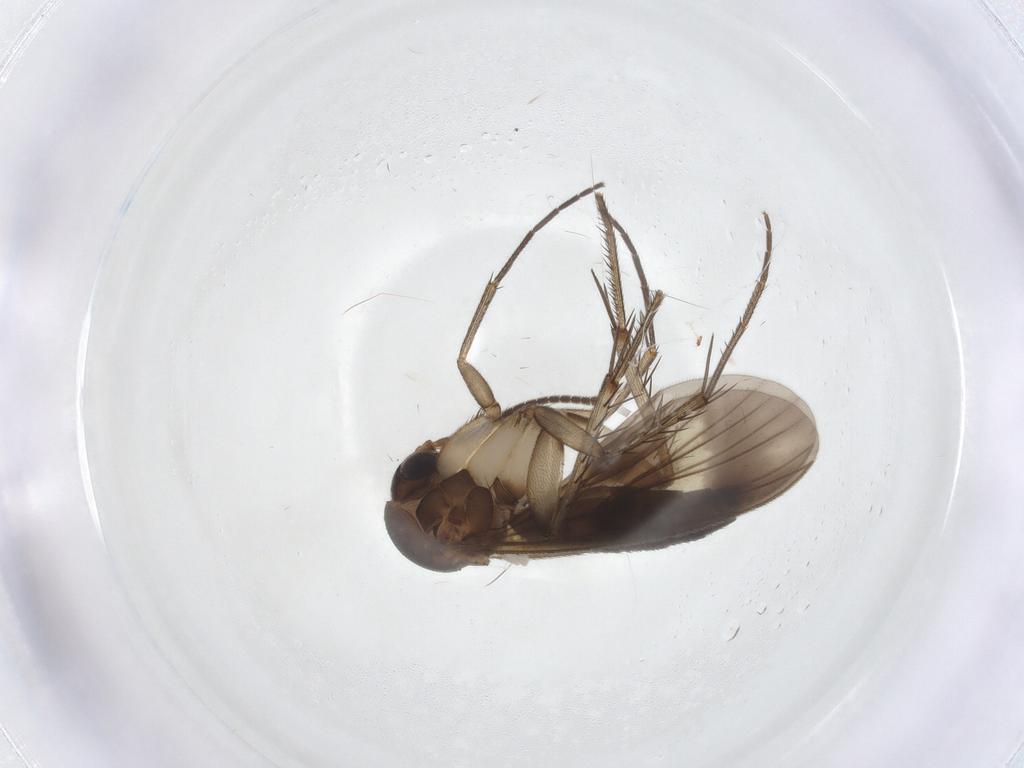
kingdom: Animalia
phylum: Arthropoda
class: Insecta
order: Diptera
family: Mycetophilidae
